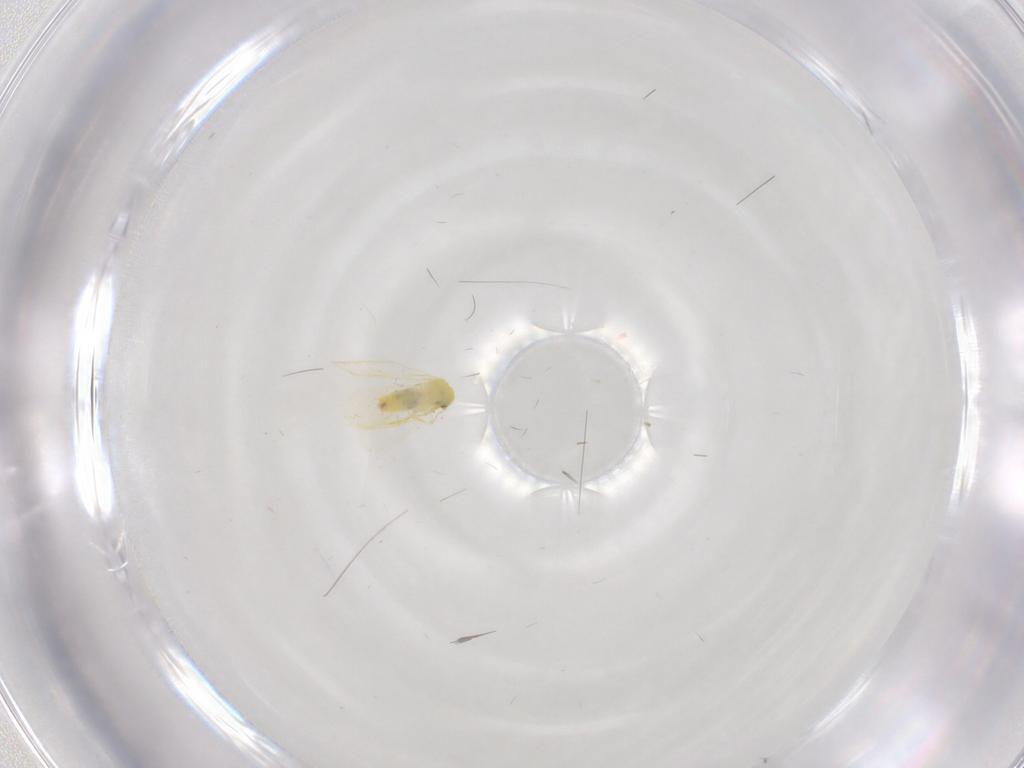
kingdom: Animalia
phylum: Arthropoda
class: Insecta
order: Hemiptera
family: Aleyrodidae
